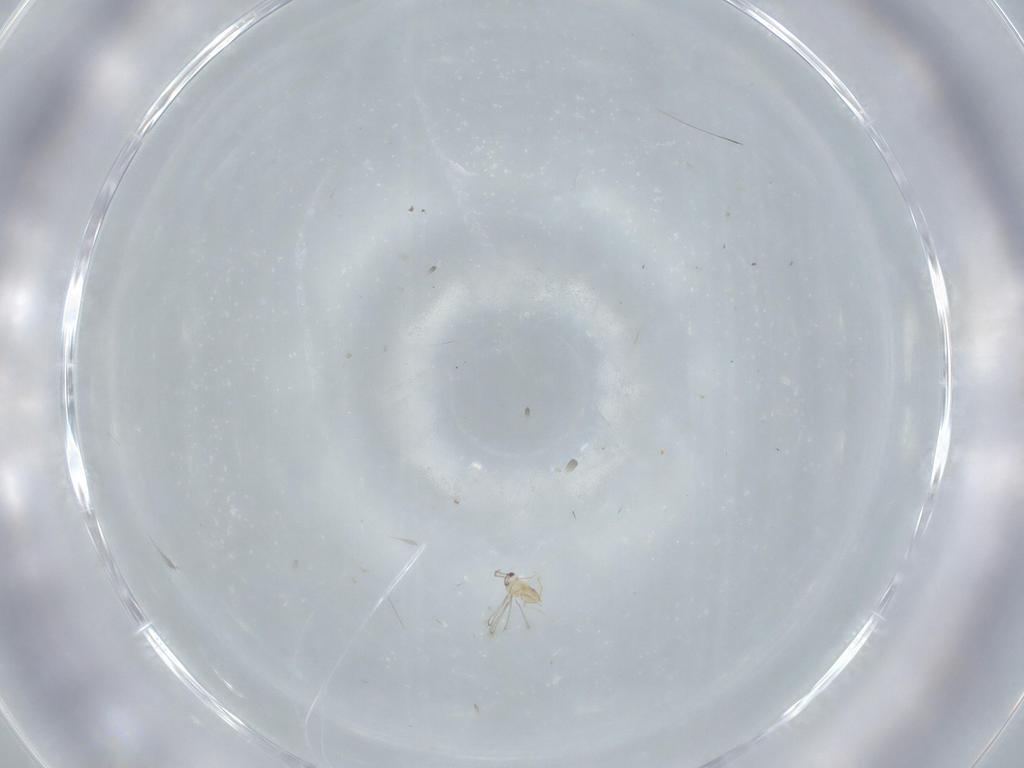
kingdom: Animalia
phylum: Arthropoda
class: Insecta
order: Hymenoptera
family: Mymaridae
